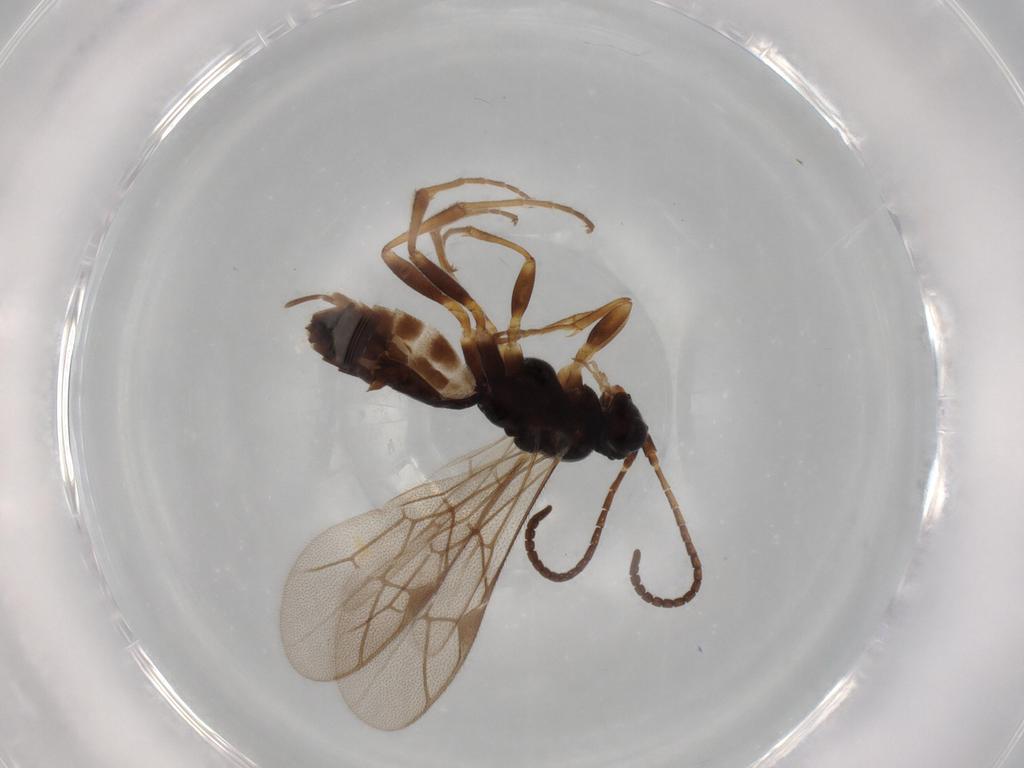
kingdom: Animalia
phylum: Arthropoda
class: Insecta
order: Hymenoptera
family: Ichneumonidae
